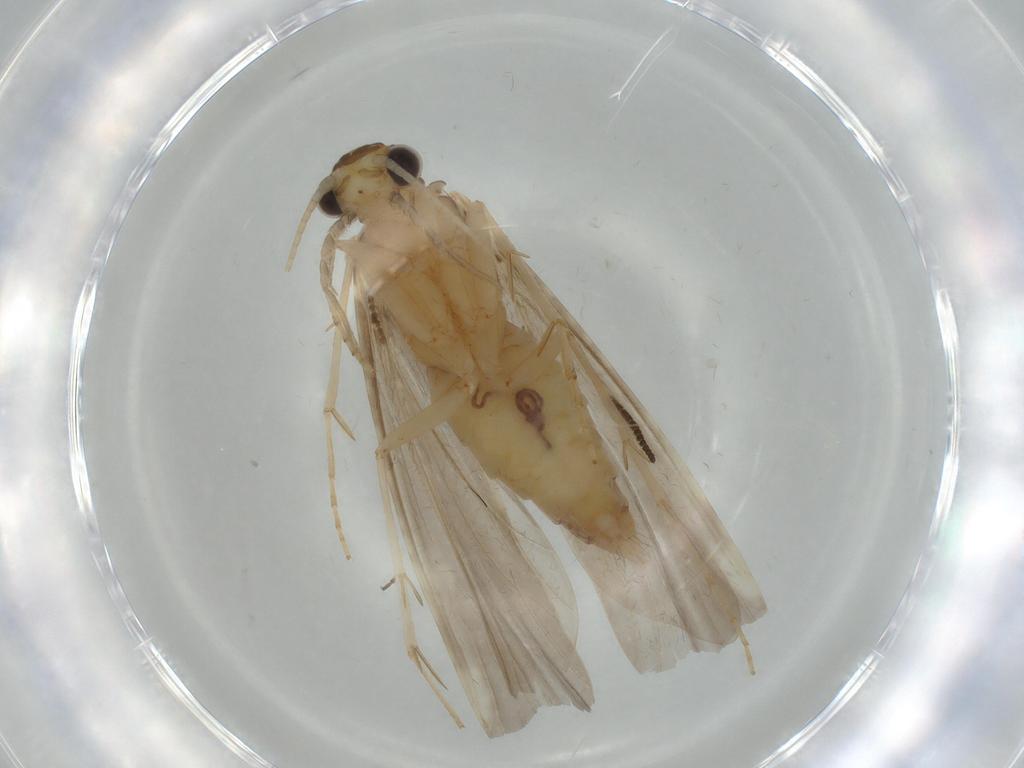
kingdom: Animalia
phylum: Arthropoda
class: Insecta
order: Trichoptera
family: Ecnomidae
